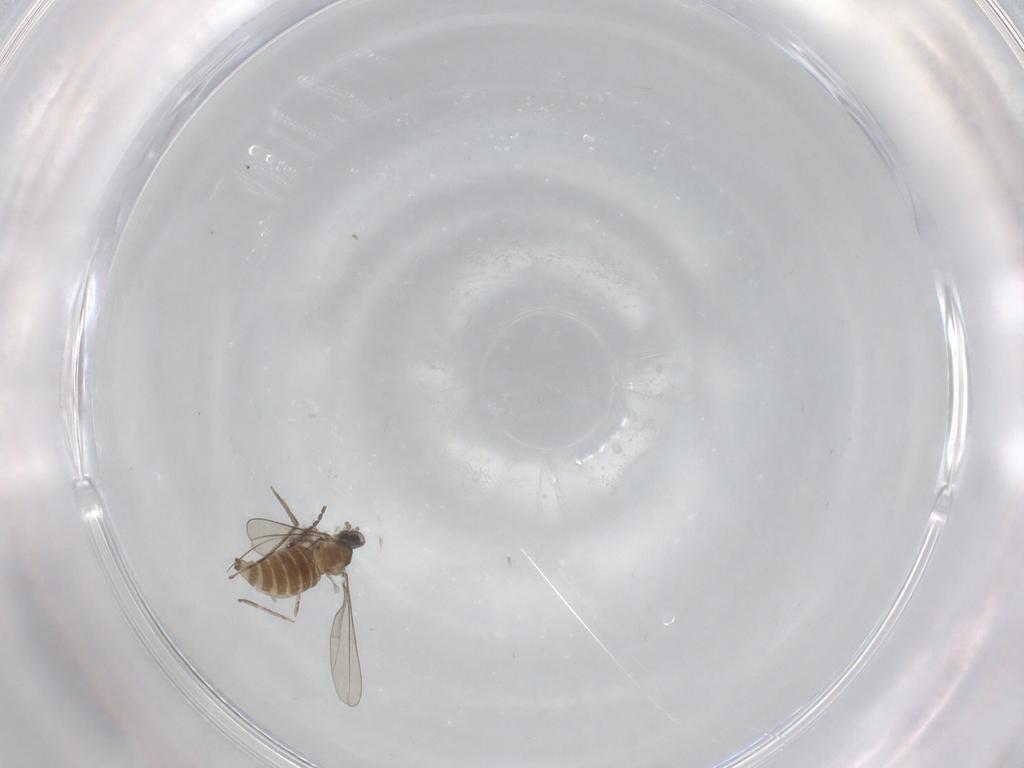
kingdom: Animalia
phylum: Arthropoda
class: Insecta
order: Diptera
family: Cecidomyiidae
